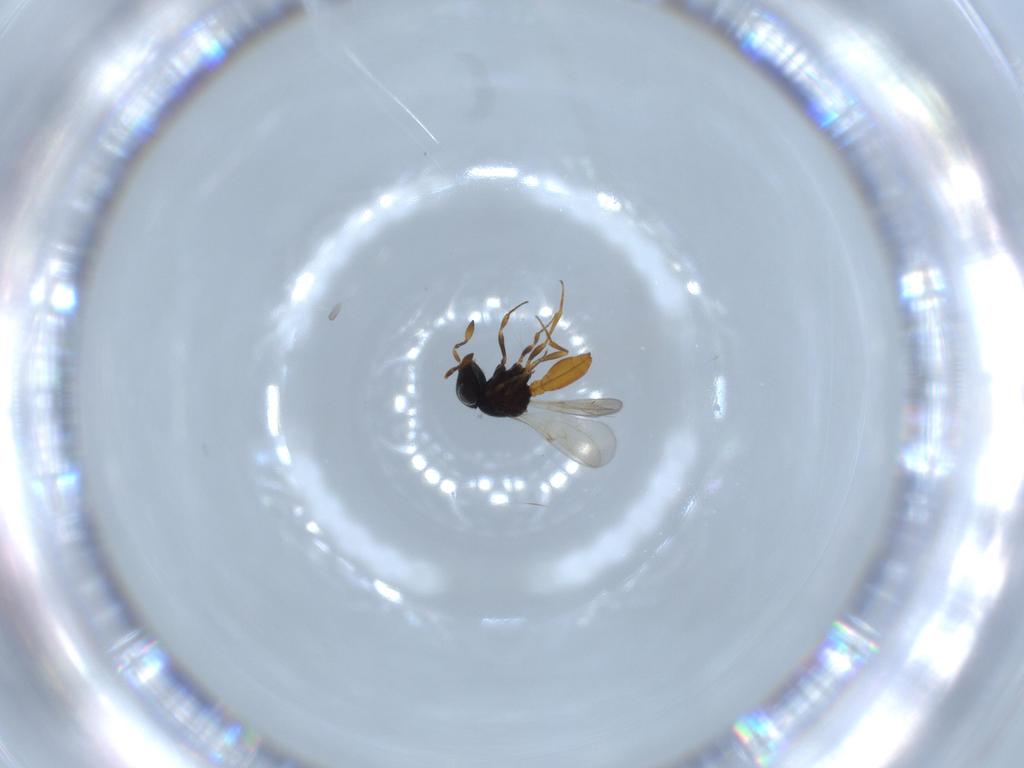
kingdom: Animalia
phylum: Arthropoda
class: Insecta
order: Hymenoptera
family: Scelionidae
